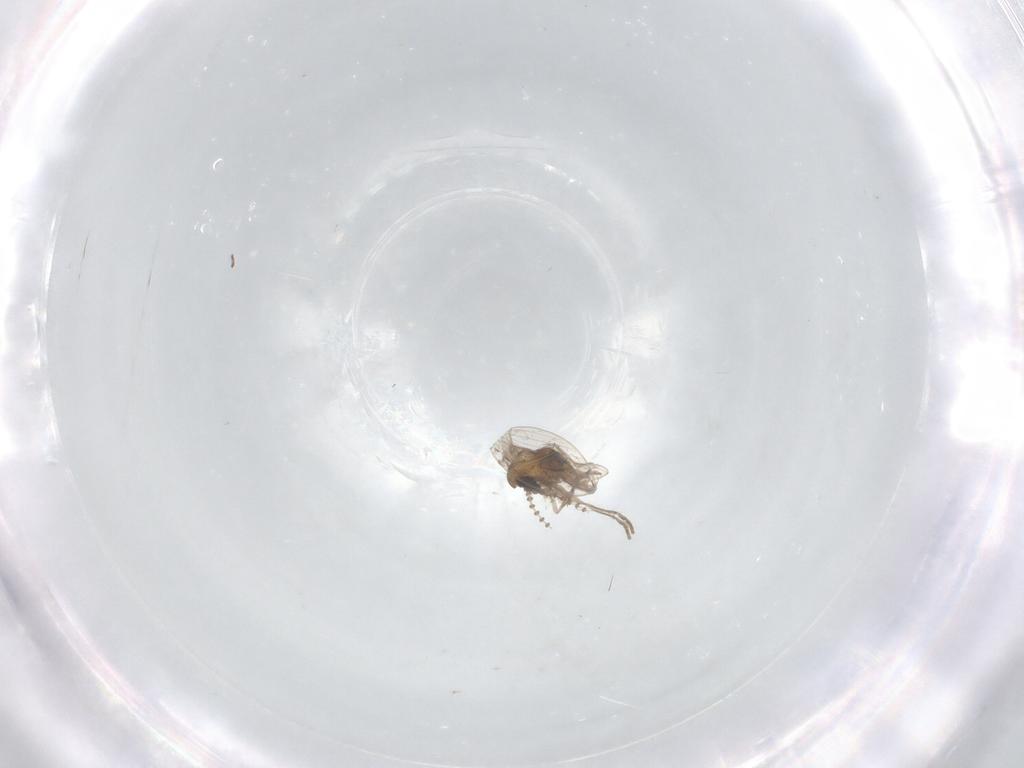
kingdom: Animalia
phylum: Arthropoda
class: Insecta
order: Diptera
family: Psychodidae
